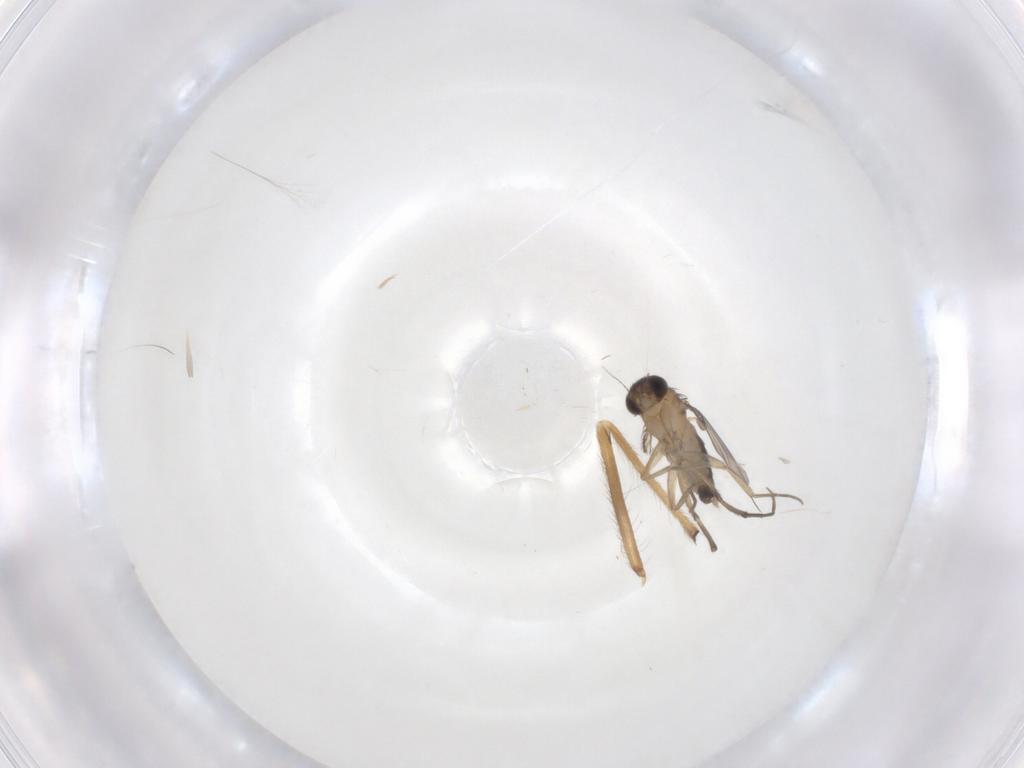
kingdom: Animalia
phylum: Arthropoda
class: Insecta
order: Diptera
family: Phoridae
